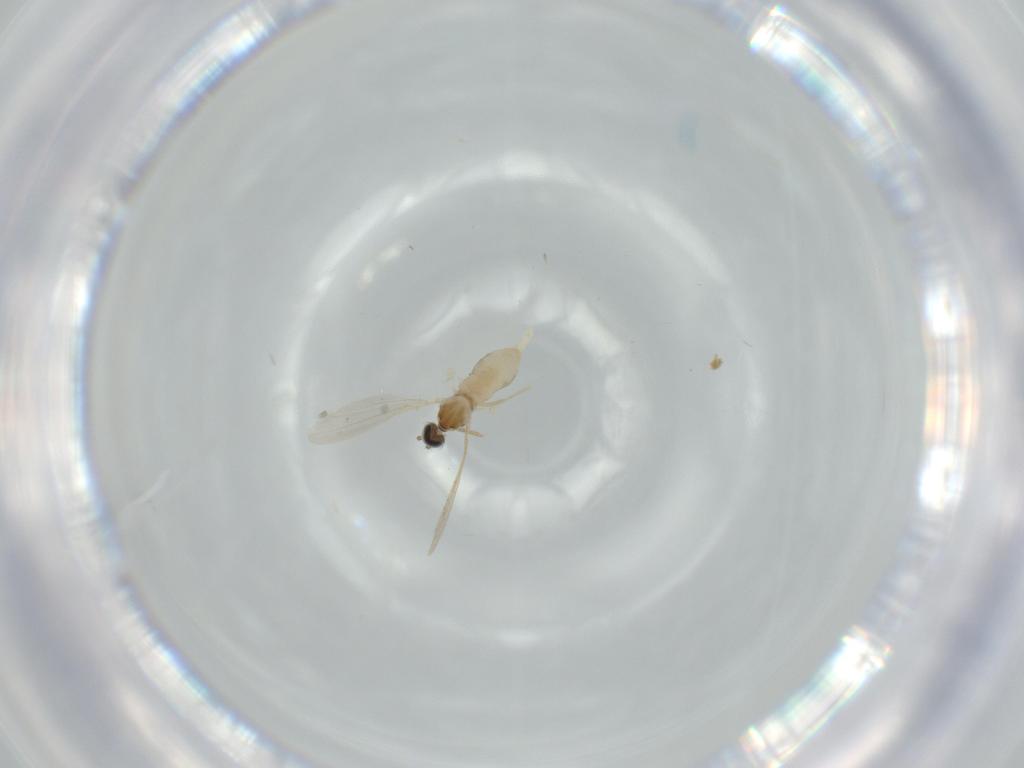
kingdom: Animalia
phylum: Arthropoda
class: Insecta
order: Diptera
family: Cecidomyiidae
